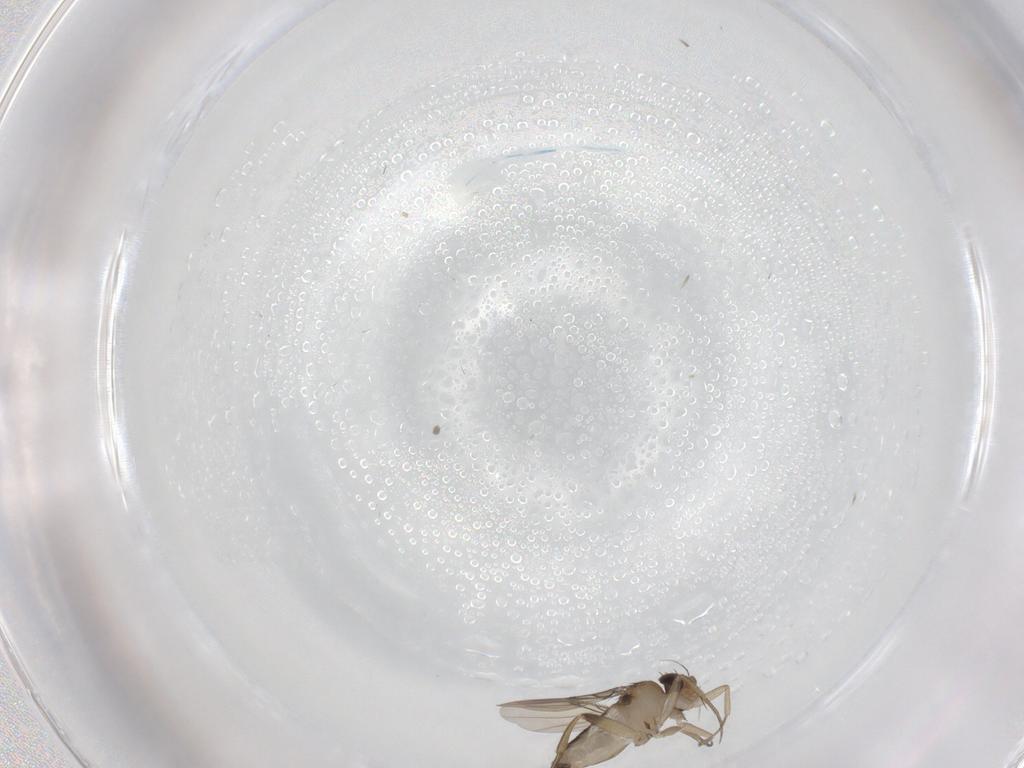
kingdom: Animalia
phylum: Arthropoda
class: Insecta
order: Diptera
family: Phoridae
